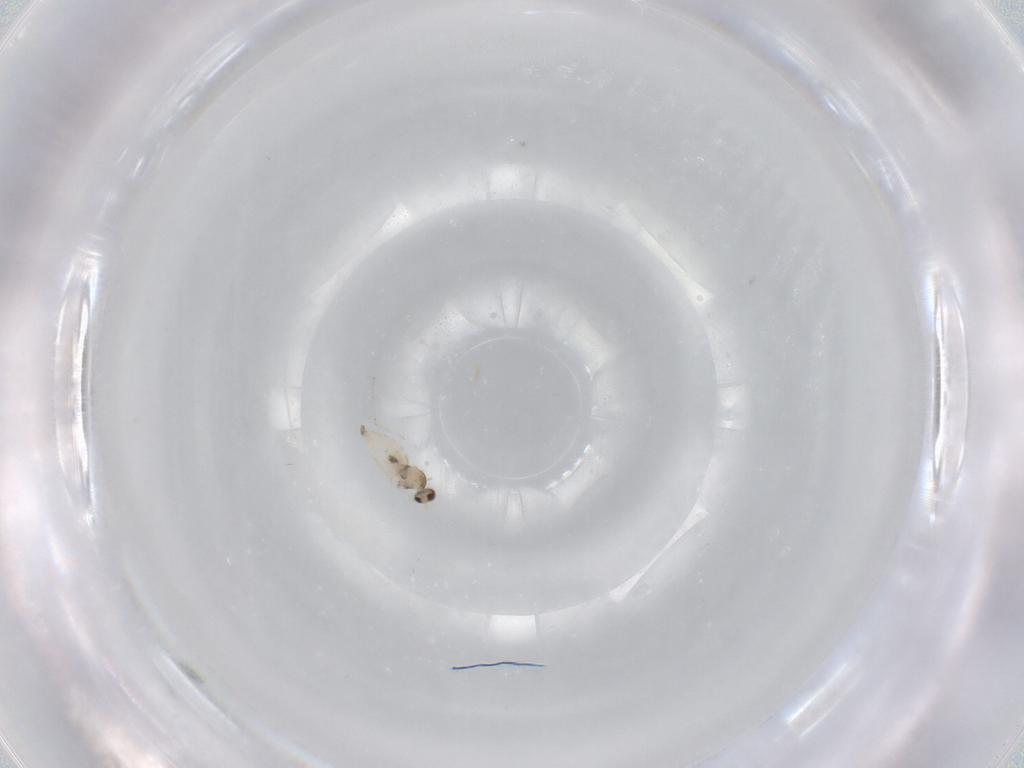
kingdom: Animalia
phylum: Arthropoda
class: Insecta
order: Diptera
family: Cecidomyiidae
